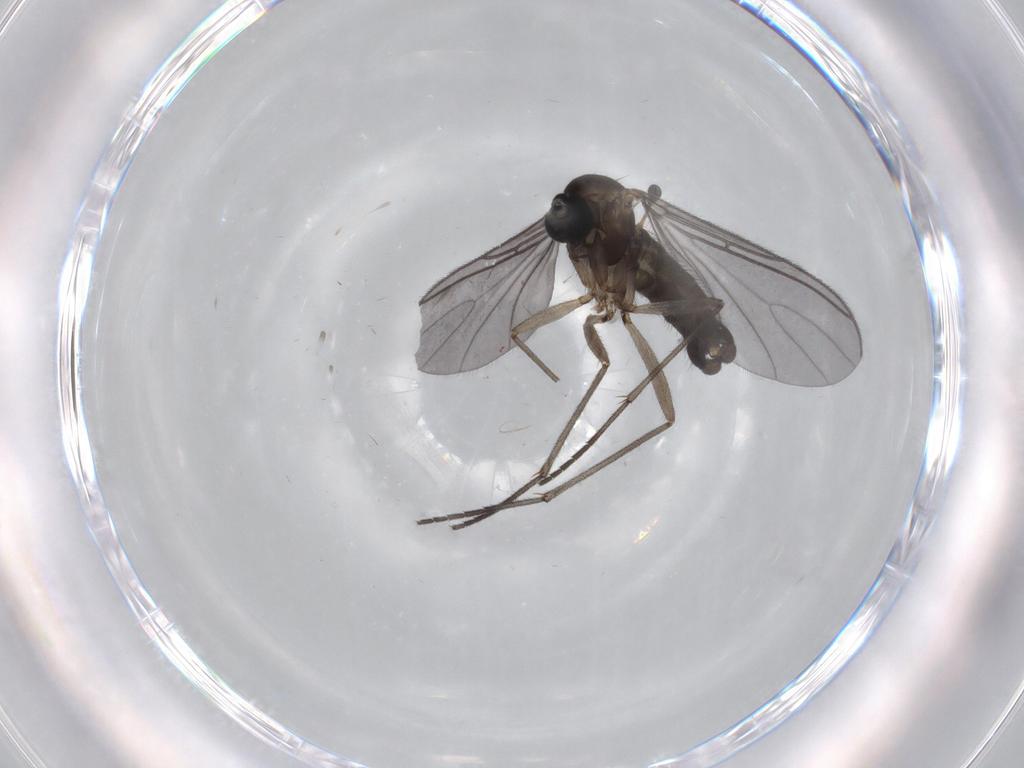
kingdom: Animalia
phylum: Arthropoda
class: Insecta
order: Diptera
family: Sciaridae
